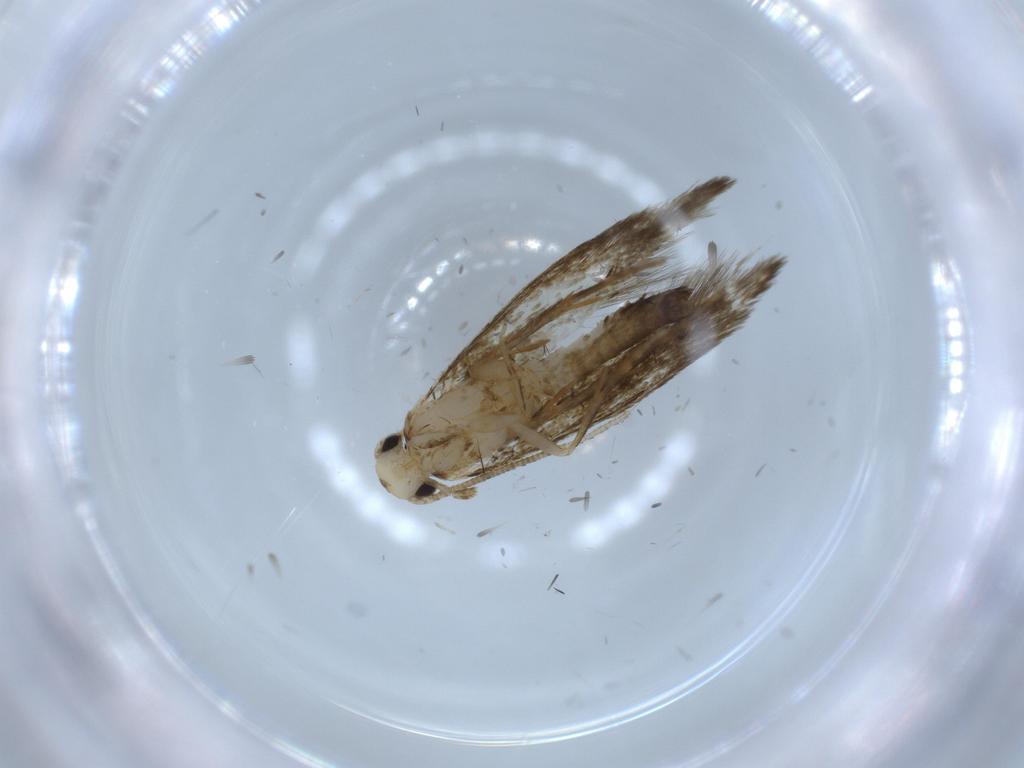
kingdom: Animalia
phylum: Arthropoda
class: Insecta
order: Lepidoptera
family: Tineidae
